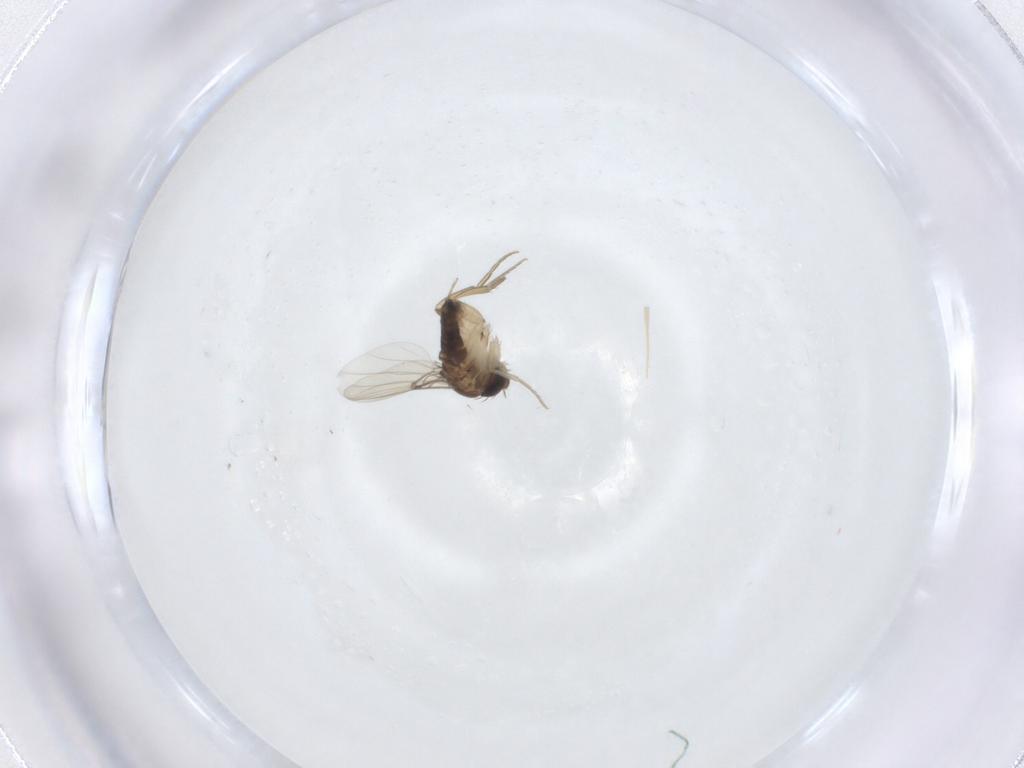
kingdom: Animalia
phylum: Arthropoda
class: Insecta
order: Diptera
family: Phoridae
